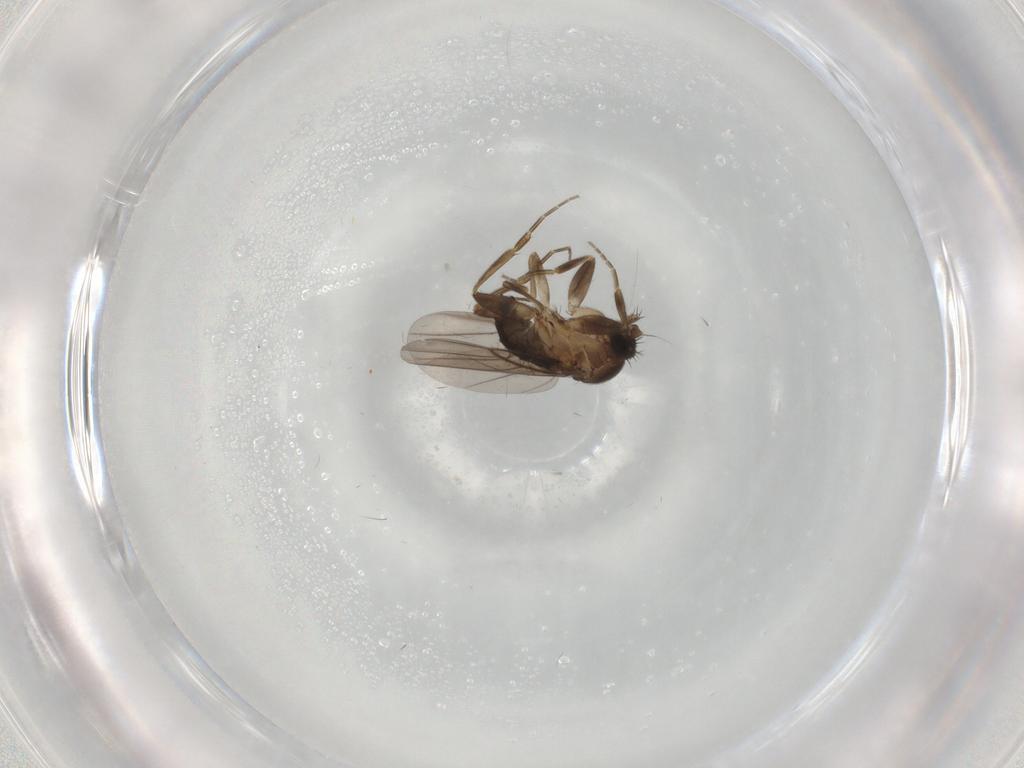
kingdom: Animalia
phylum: Arthropoda
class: Insecta
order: Diptera
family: Phoridae
